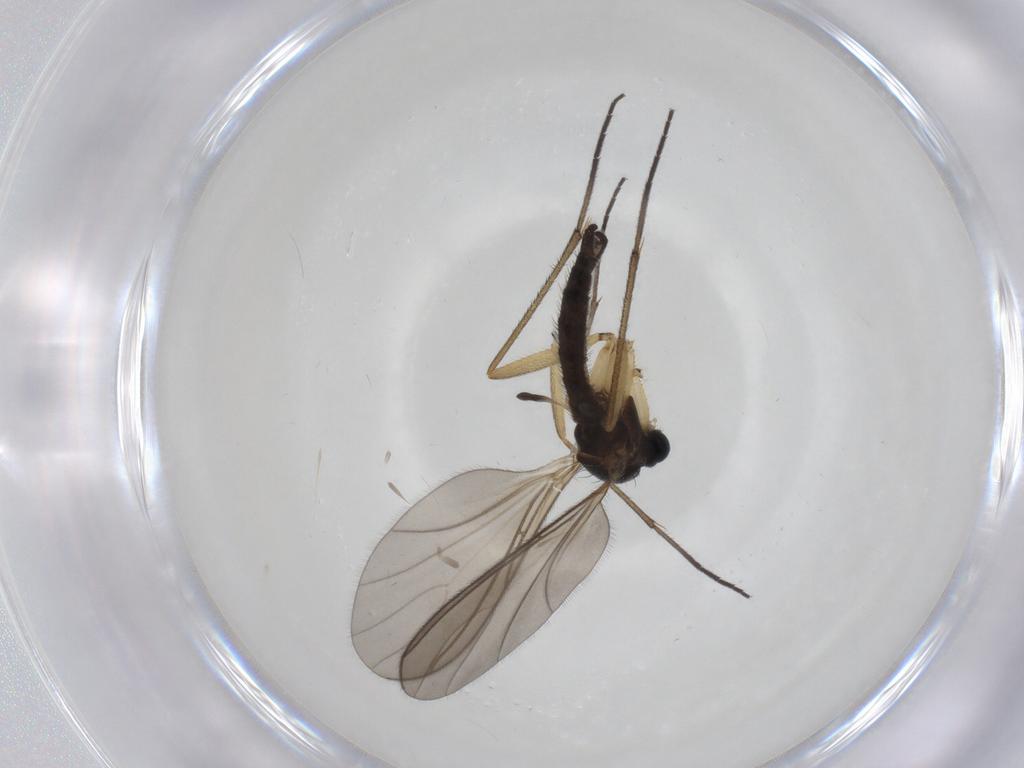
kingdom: Animalia
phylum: Arthropoda
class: Insecta
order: Diptera
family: Sciaridae
